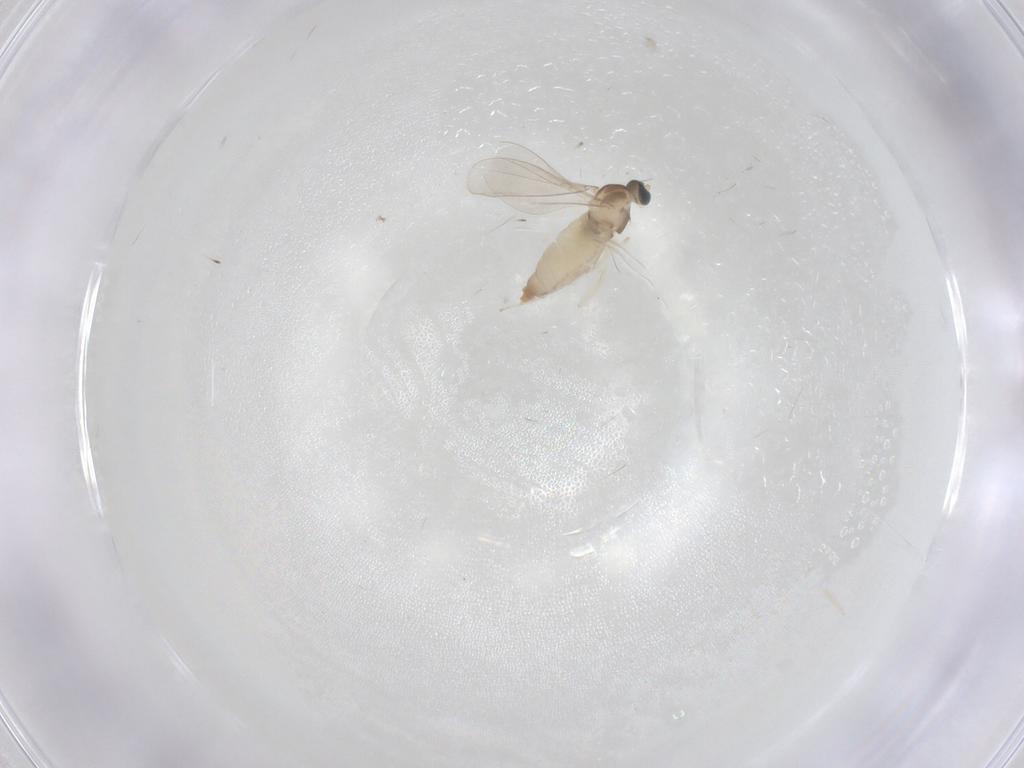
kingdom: Animalia
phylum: Arthropoda
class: Insecta
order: Diptera
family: Cecidomyiidae
